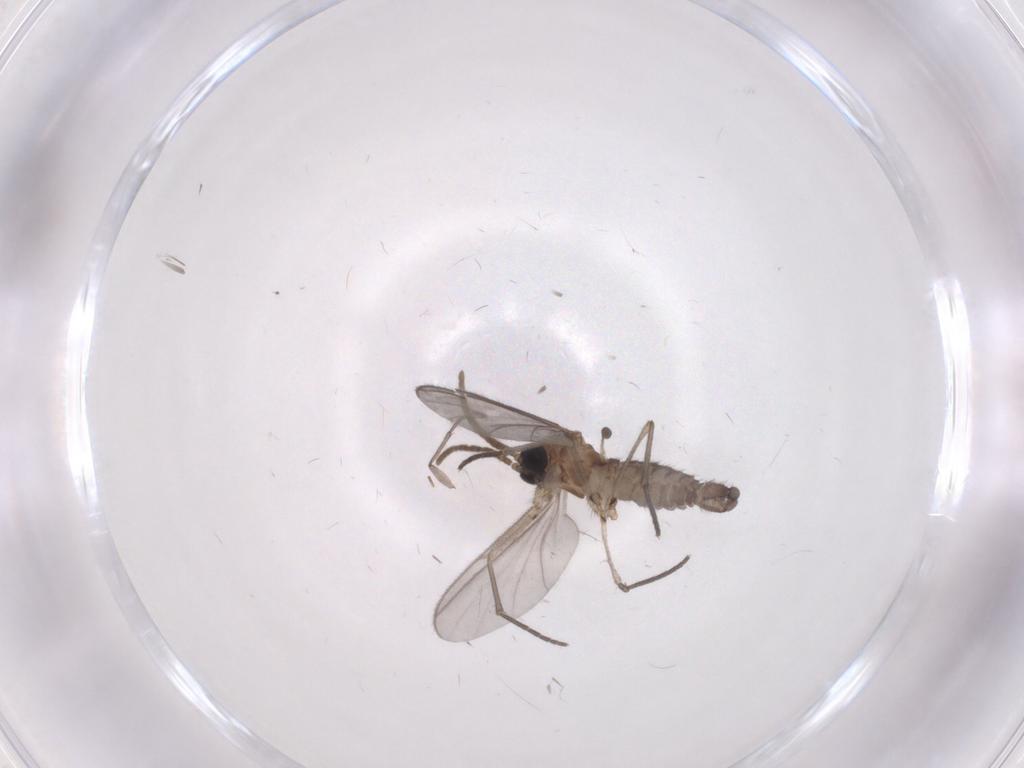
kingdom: Animalia
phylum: Arthropoda
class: Insecta
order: Diptera
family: Sciaridae
